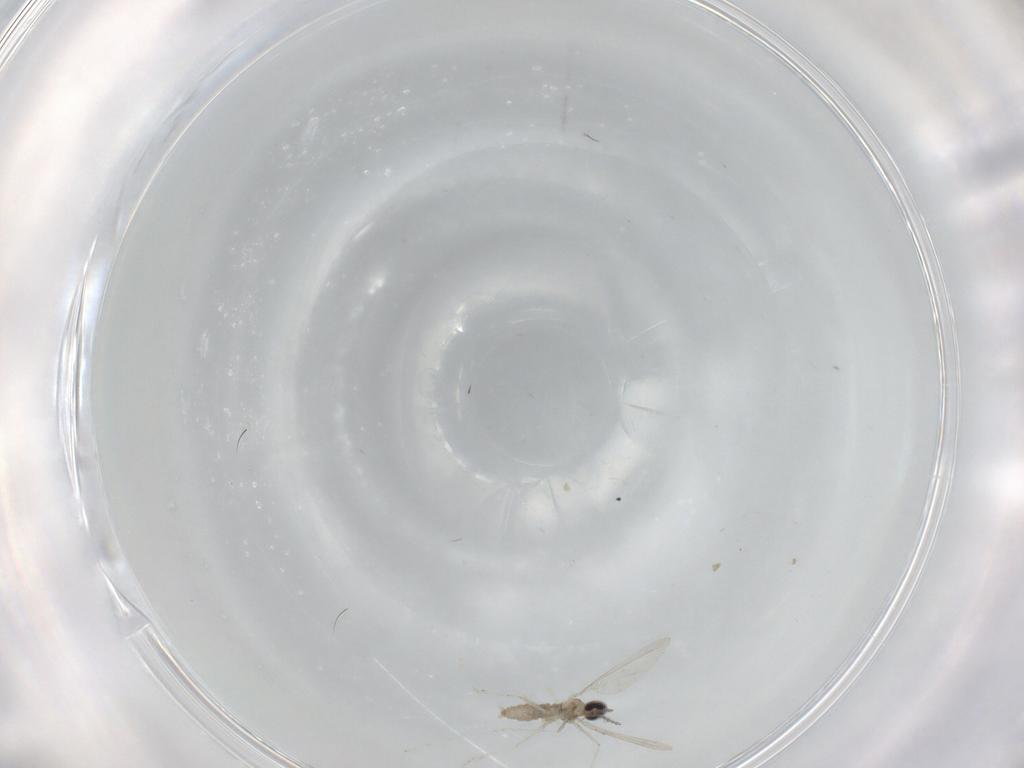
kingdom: Animalia
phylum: Arthropoda
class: Insecta
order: Diptera
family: Cecidomyiidae
